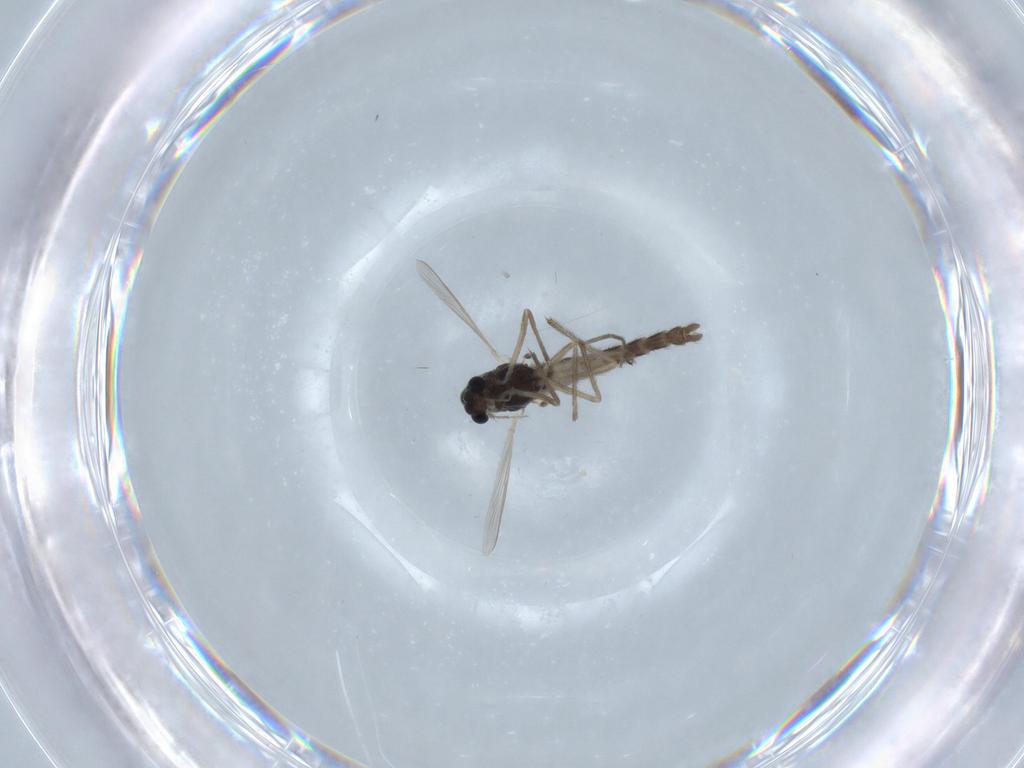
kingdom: Animalia
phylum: Arthropoda
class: Insecta
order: Diptera
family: Chironomidae
